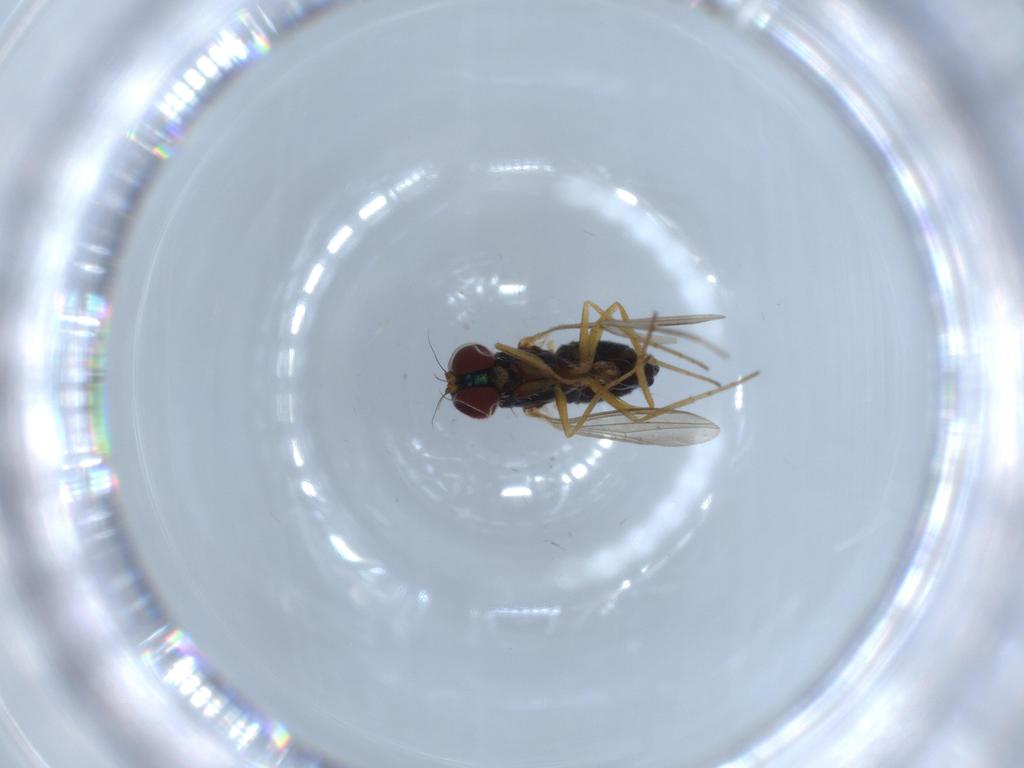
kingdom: Animalia
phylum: Arthropoda
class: Insecta
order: Diptera
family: Dolichopodidae
